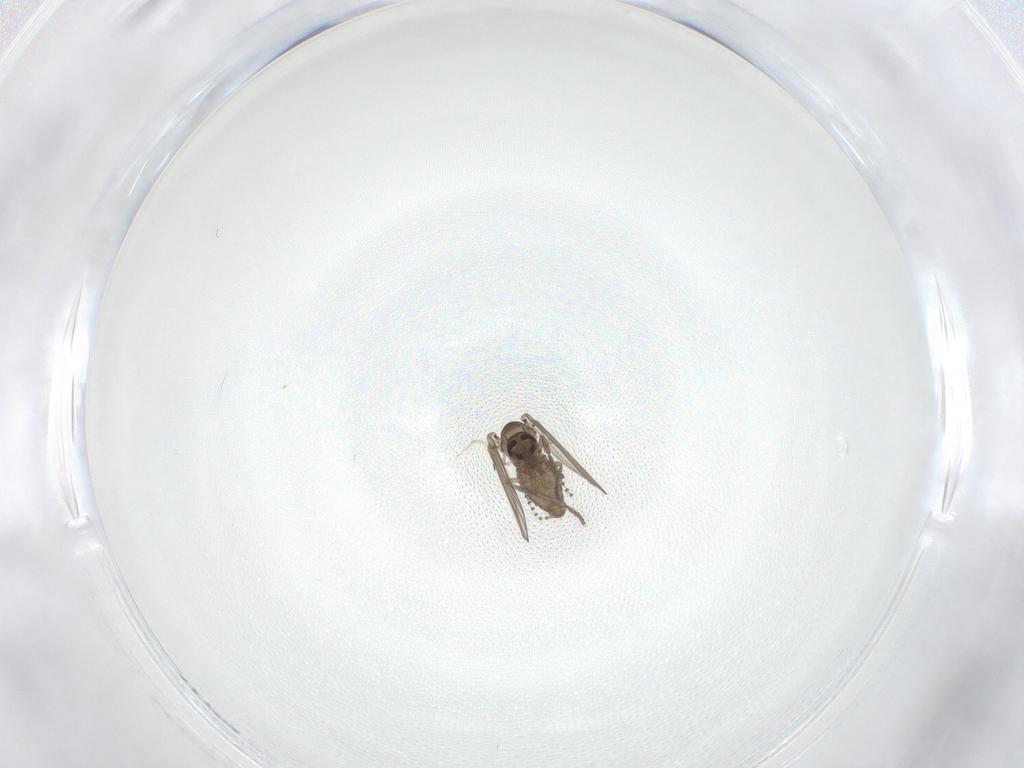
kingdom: Animalia
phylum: Arthropoda
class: Insecta
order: Diptera
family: Psychodidae
